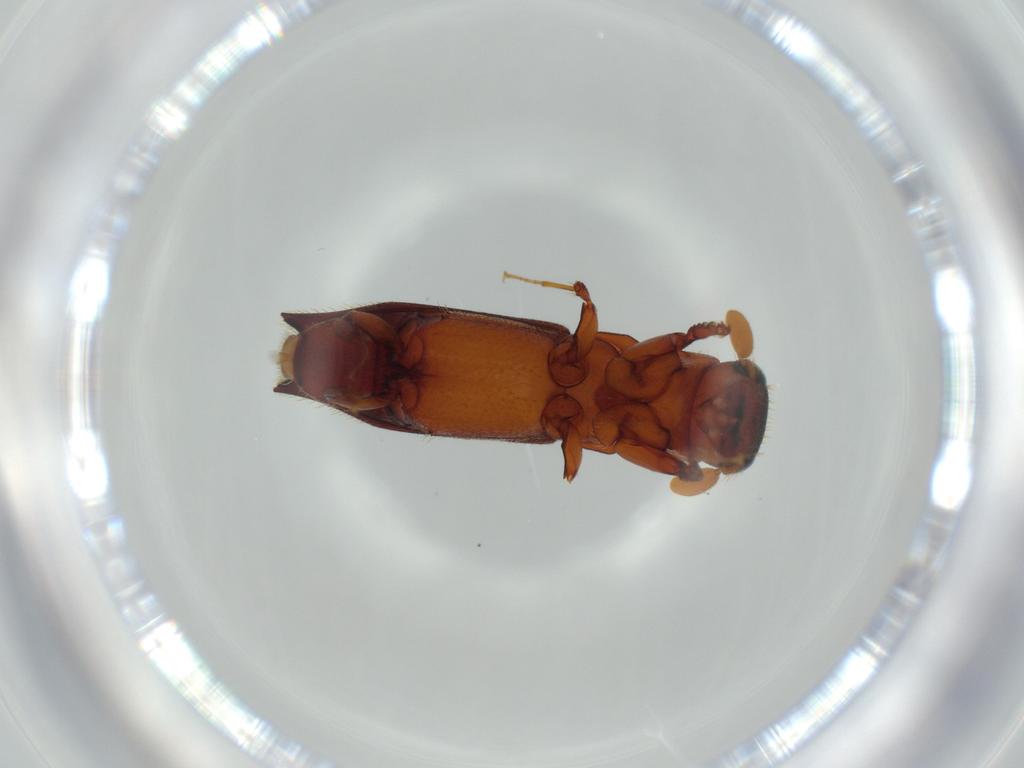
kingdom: Animalia
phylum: Arthropoda
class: Insecta
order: Coleoptera
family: Curculionidae
